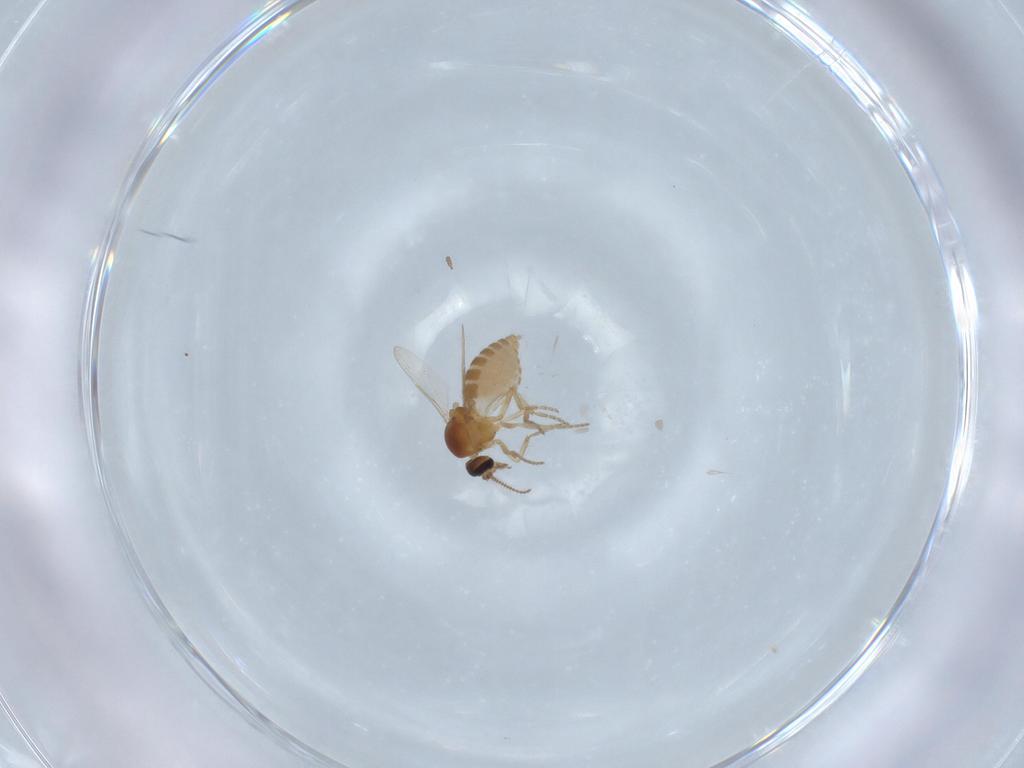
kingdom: Animalia
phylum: Arthropoda
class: Insecta
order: Diptera
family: Ceratopogonidae
